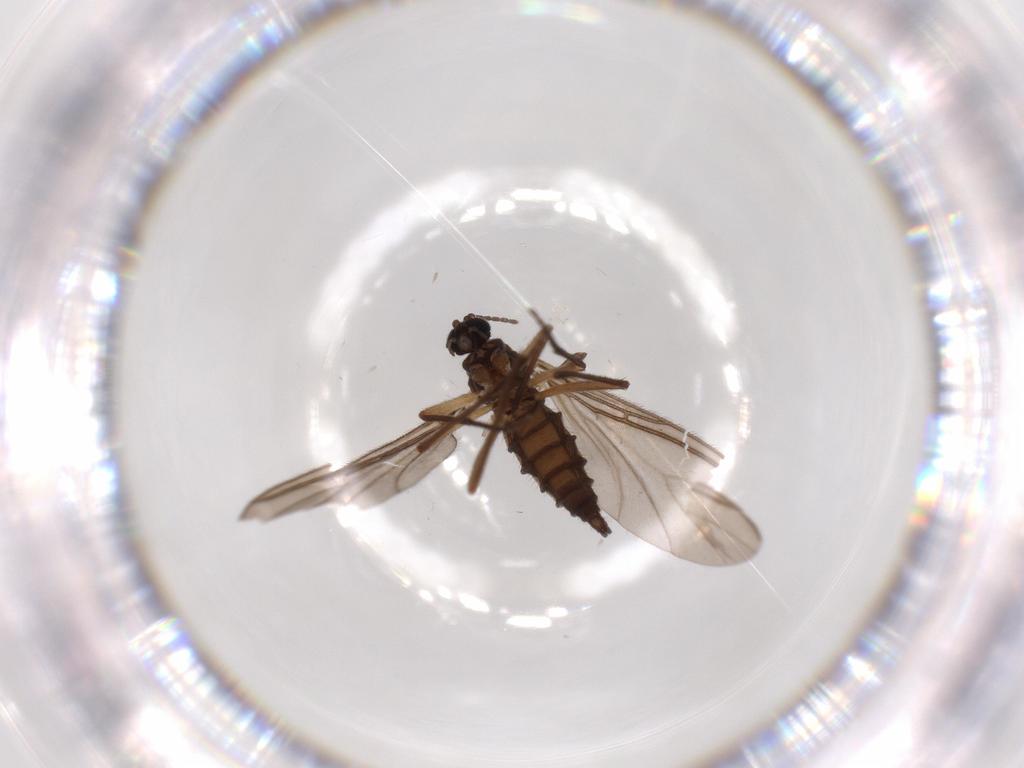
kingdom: Animalia
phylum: Arthropoda
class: Insecta
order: Diptera
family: Sciaridae
